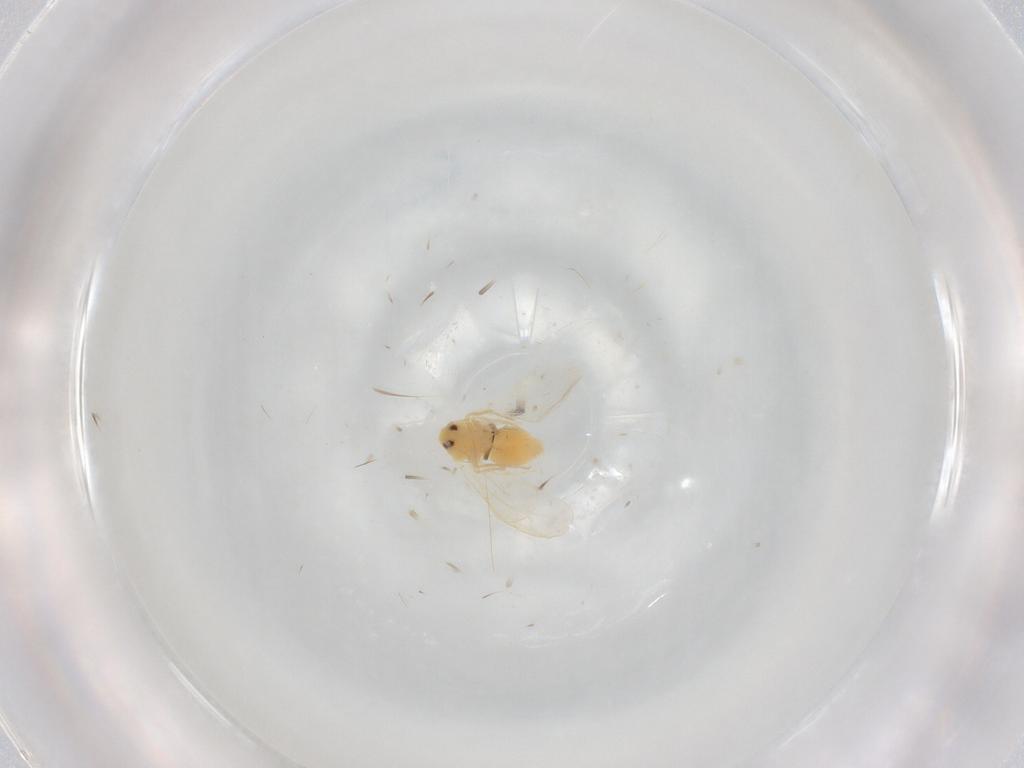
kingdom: Animalia
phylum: Arthropoda
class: Insecta
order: Hemiptera
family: Aleyrodidae
